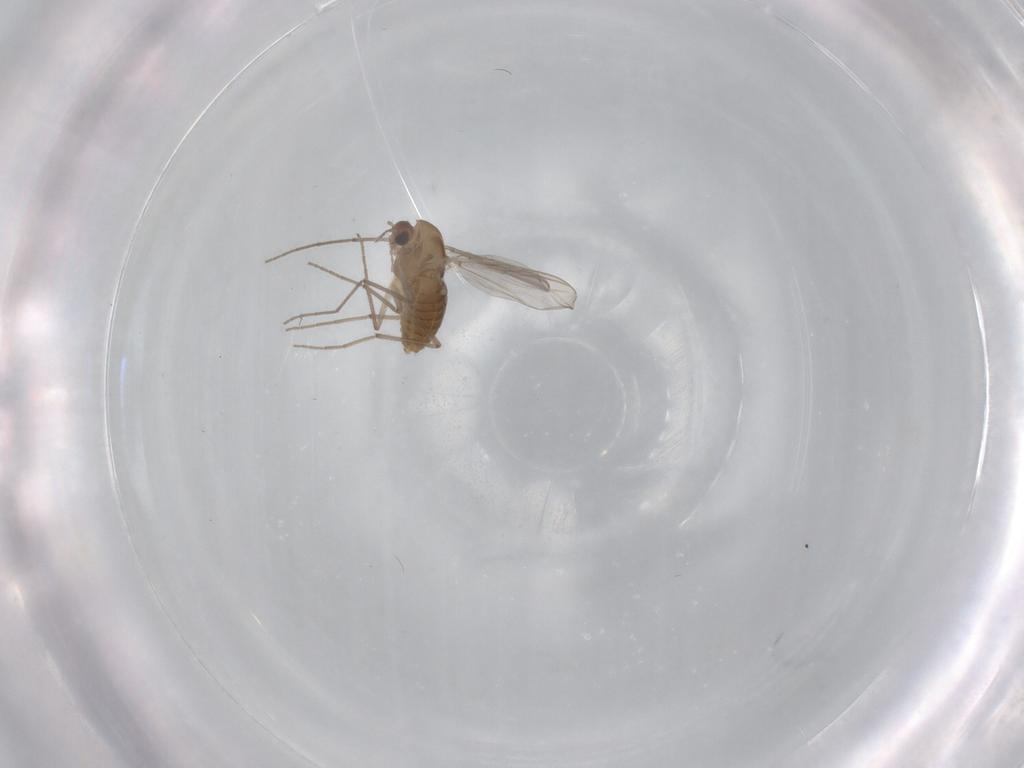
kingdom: Animalia
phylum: Arthropoda
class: Insecta
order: Diptera
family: Chironomidae
